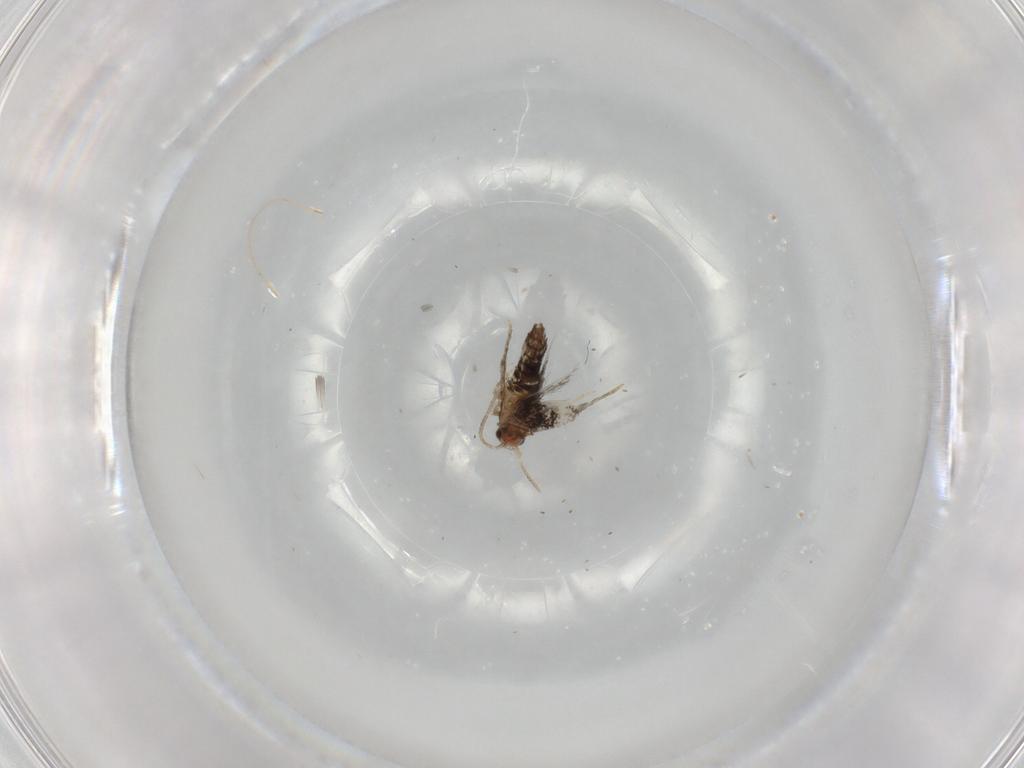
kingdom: Animalia
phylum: Arthropoda
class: Insecta
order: Lepidoptera
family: Nepticulidae
